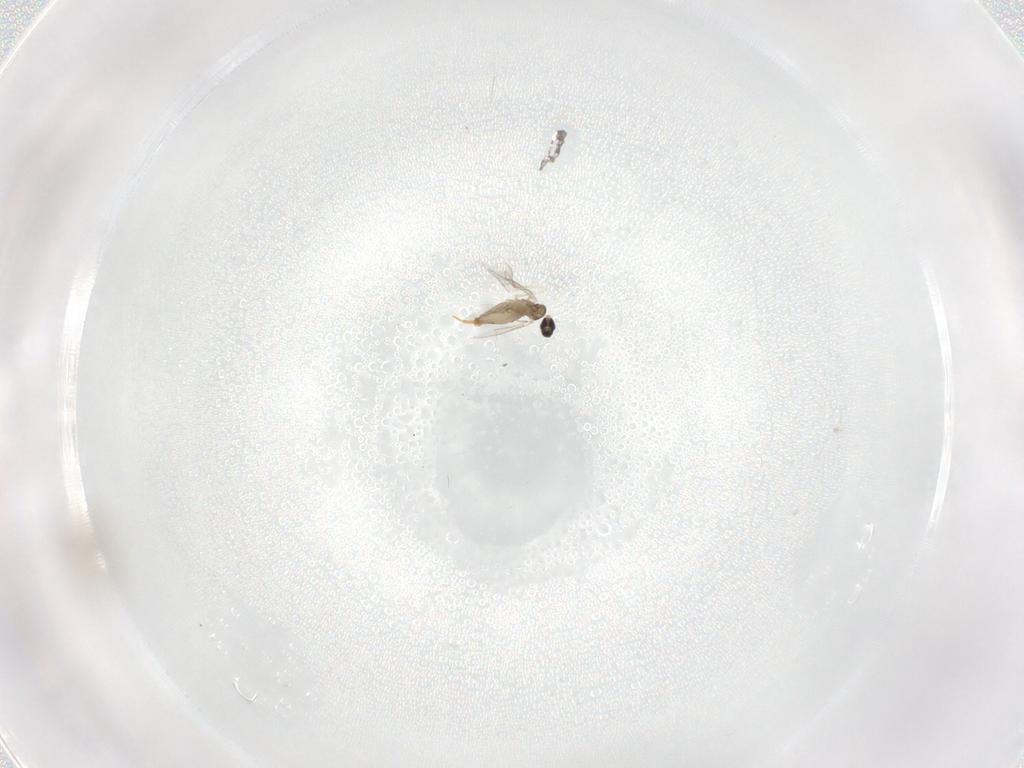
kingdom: Animalia
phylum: Arthropoda
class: Insecta
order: Diptera
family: Cecidomyiidae
